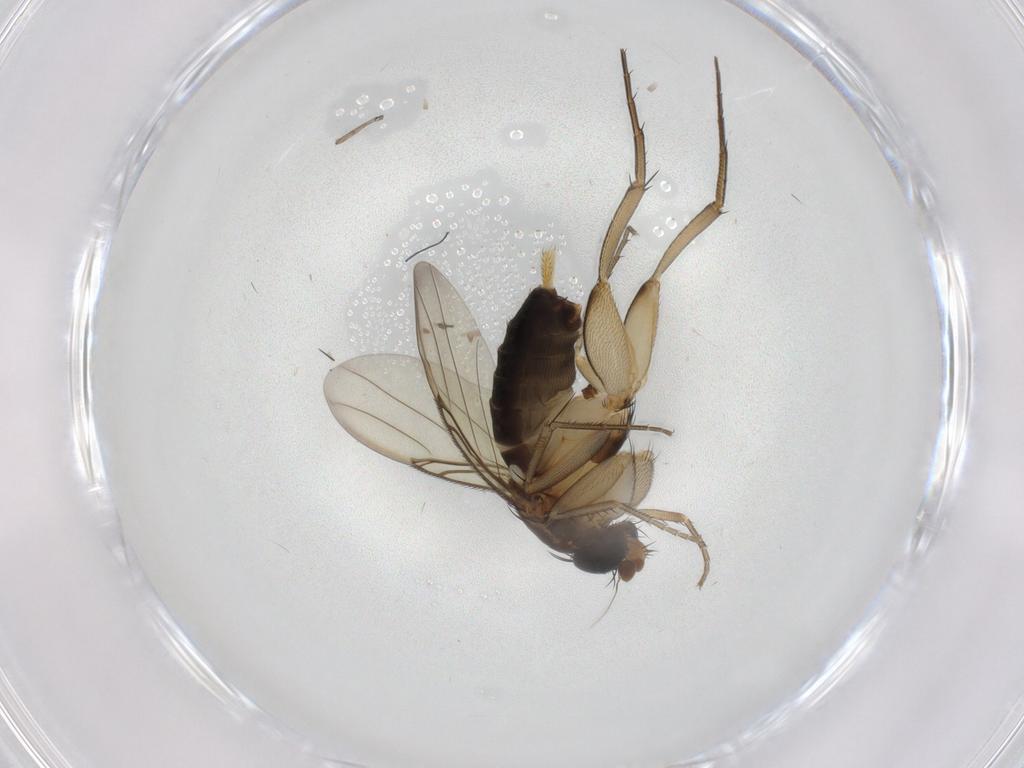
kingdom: Animalia
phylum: Arthropoda
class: Insecta
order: Diptera
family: Phoridae
